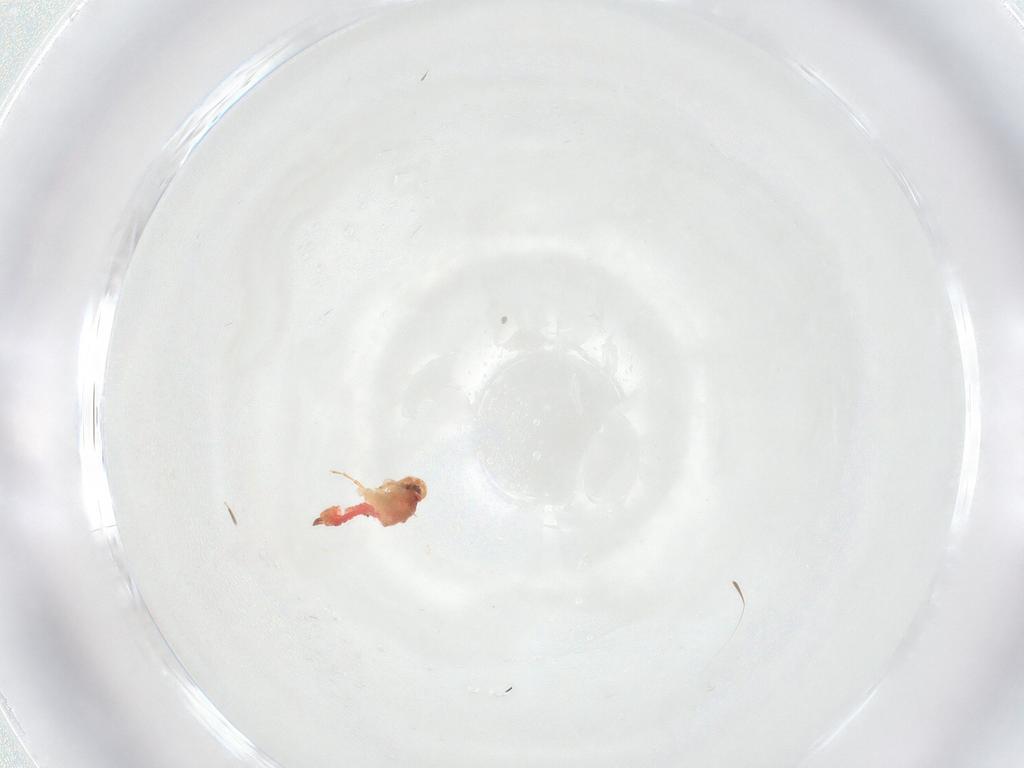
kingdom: Animalia
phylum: Arthropoda
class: Insecta
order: Hemiptera
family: Aleyrodidae
